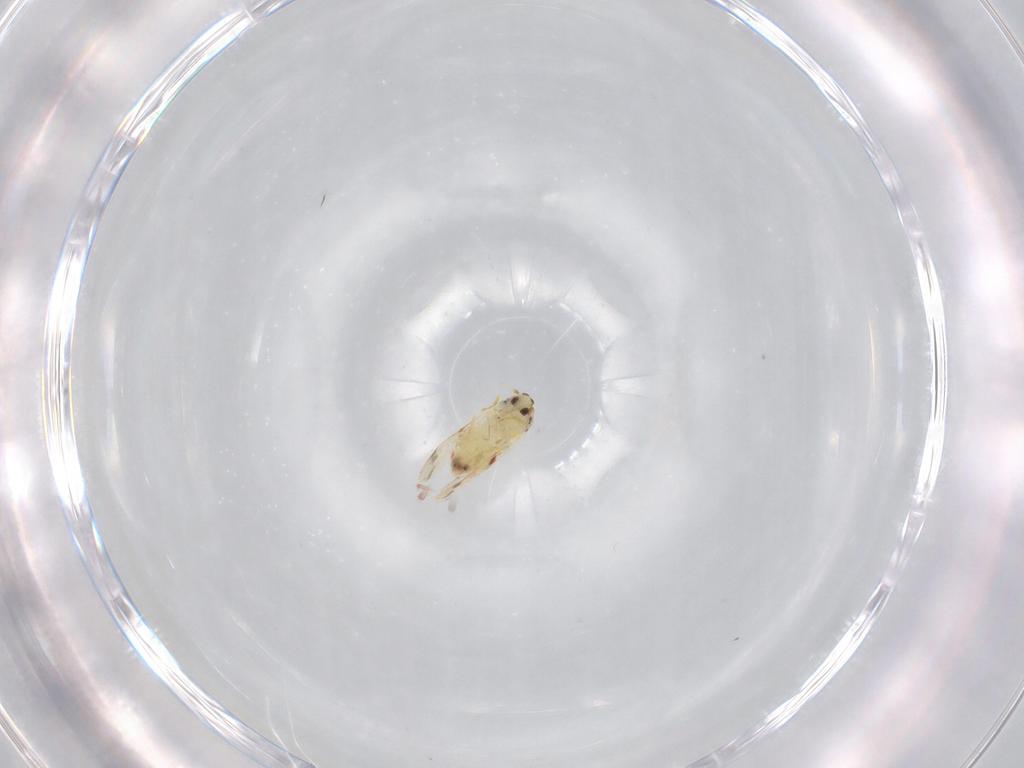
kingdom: Animalia
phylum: Arthropoda
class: Insecta
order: Hemiptera
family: Aleyrodidae
